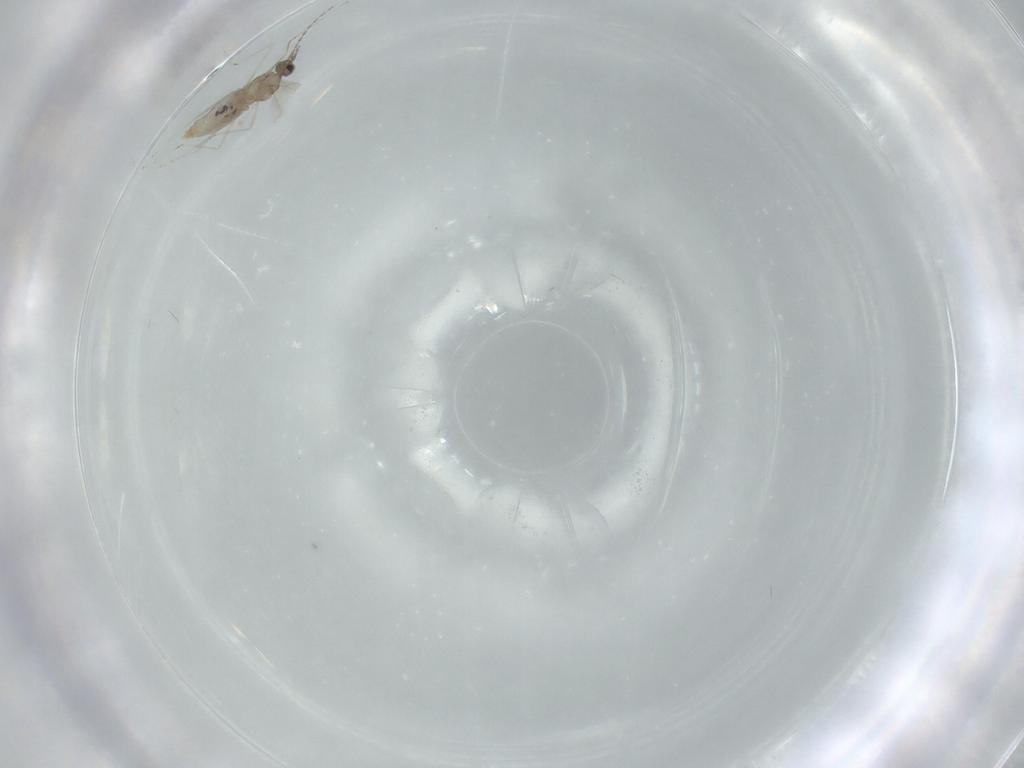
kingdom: Animalia
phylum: Arthropoda
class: Insecta
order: Diptera
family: Cecidomyiidae
